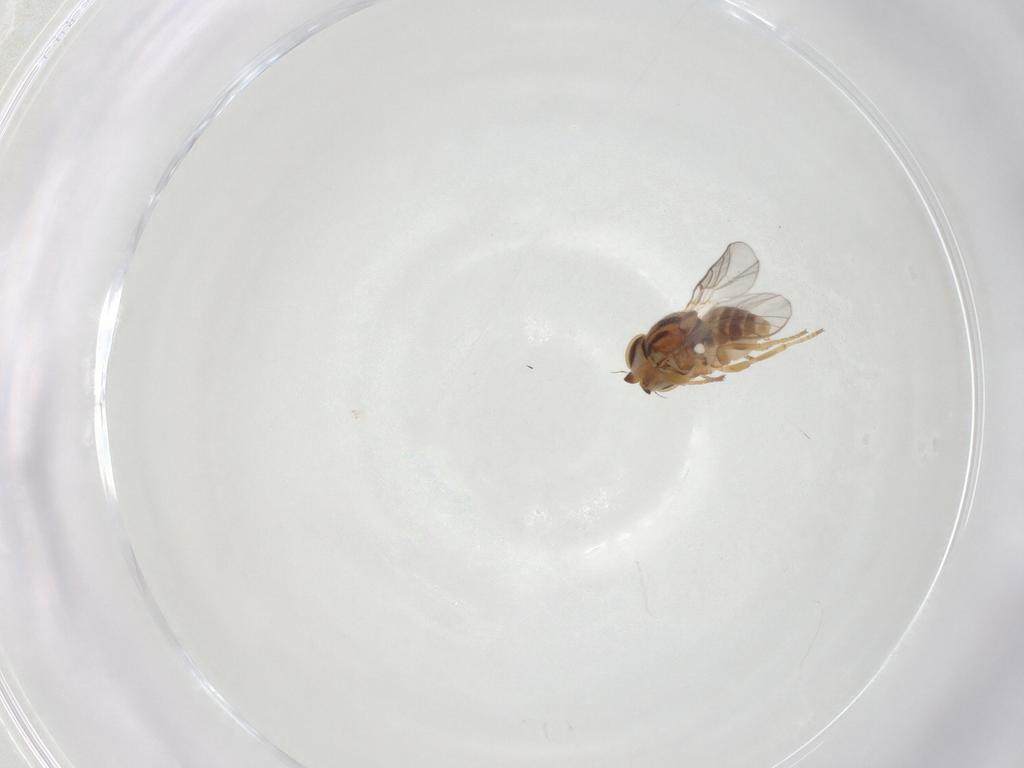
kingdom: Animalia
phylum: Arthropoda
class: Insecta
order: Diptera
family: Chloropidae
